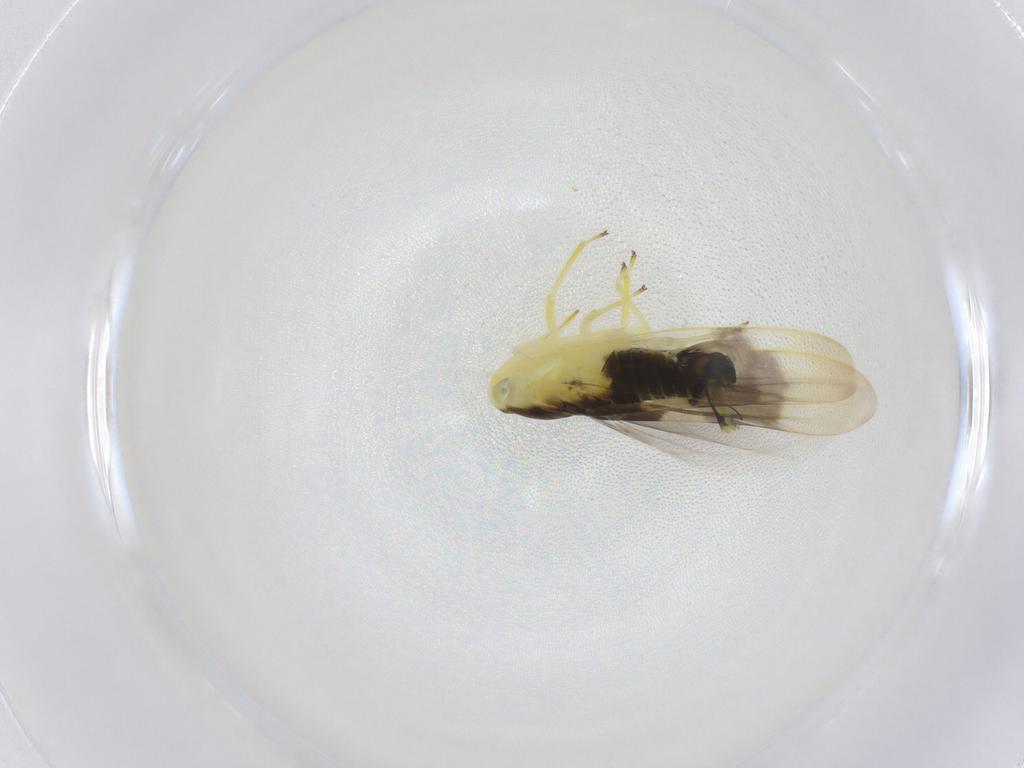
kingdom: Animalia
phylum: Arthropoda
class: Insecta
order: Hemiptera
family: Cicadellidae
